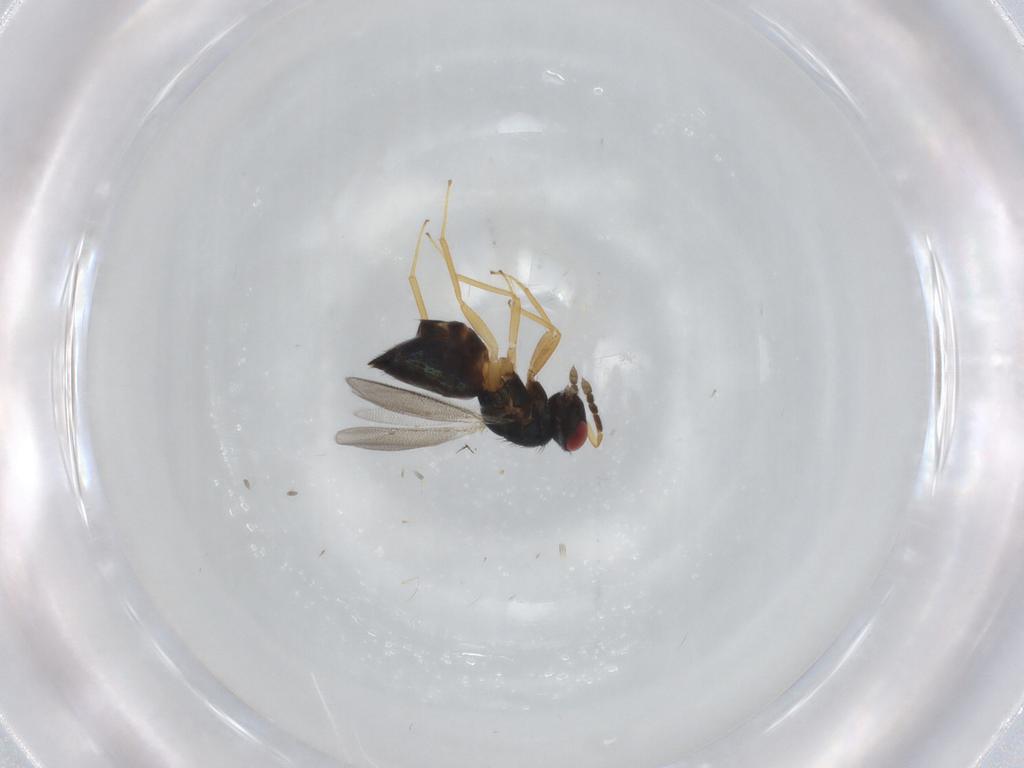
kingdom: Animalia
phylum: Arthropoda
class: Insecta
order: Hymenoptera
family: Eulophidae
